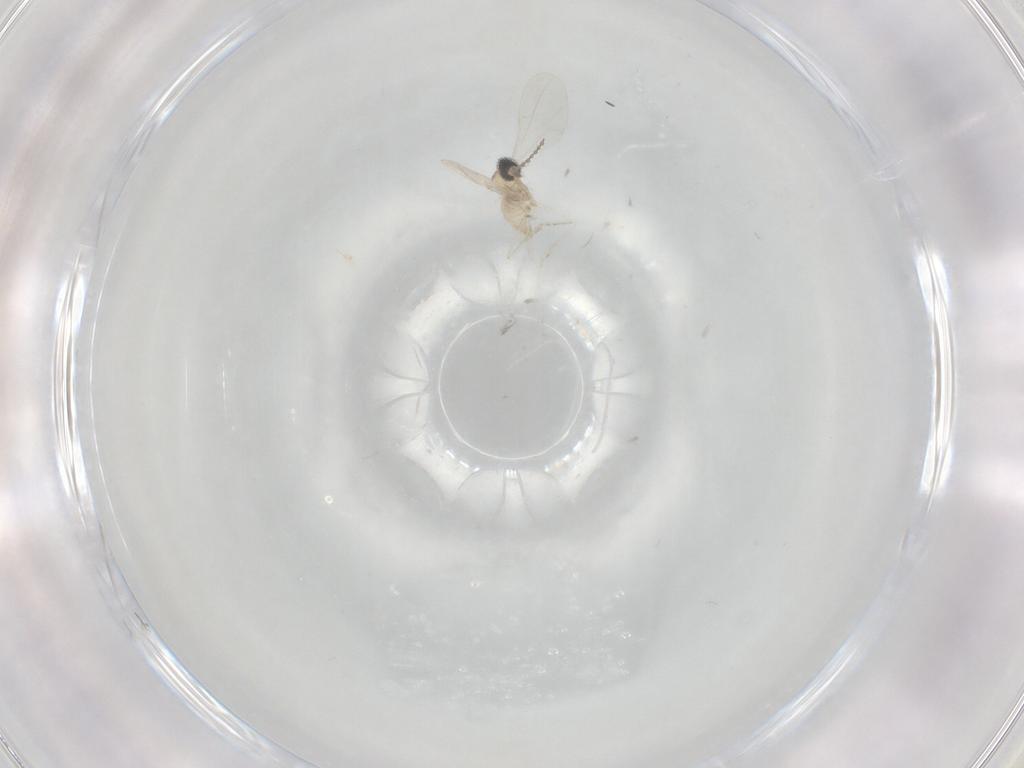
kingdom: Animalia
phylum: Arthropoda
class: Insecta
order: Diptera
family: Cecidomyiidae
